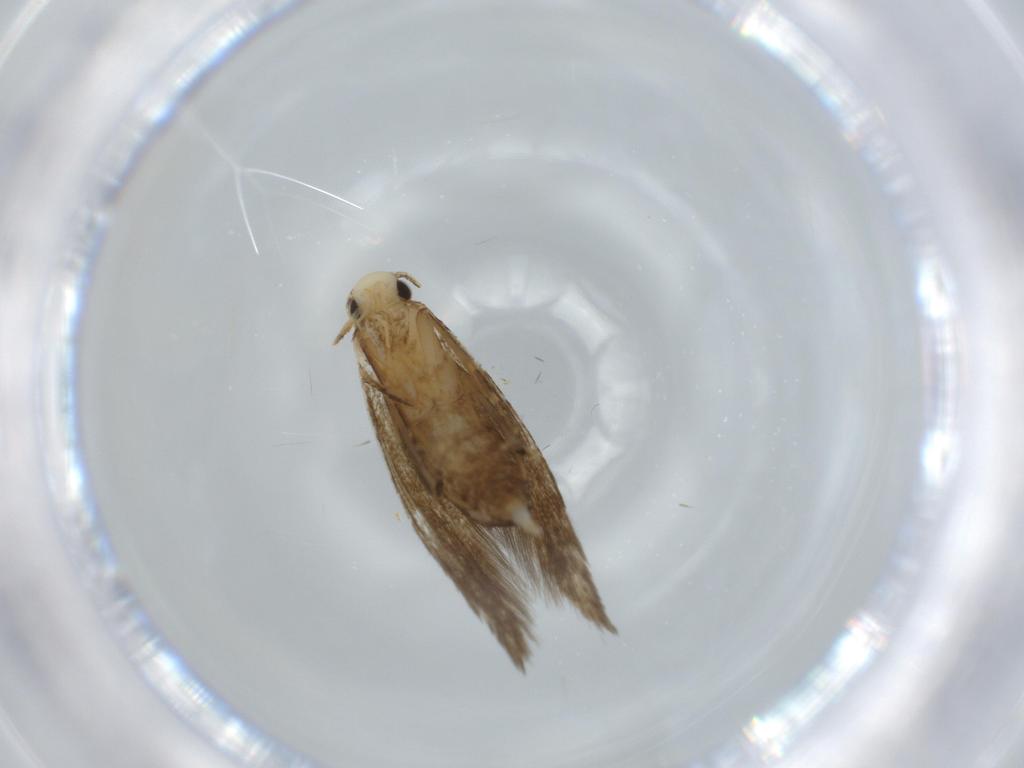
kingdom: Animalia
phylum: Arthropoda
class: Insecta
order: Lepidoptera
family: Tineidae
